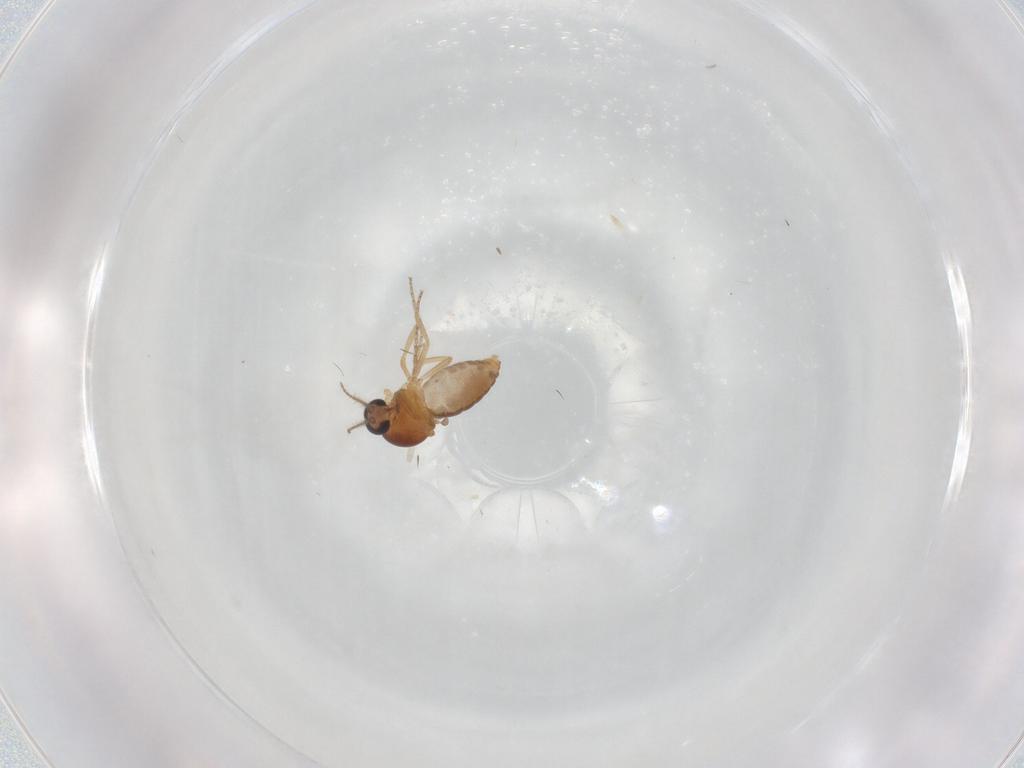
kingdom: Animalia
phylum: Arthropoda
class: Insecta
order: Diptera
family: Ceratopogonidae
